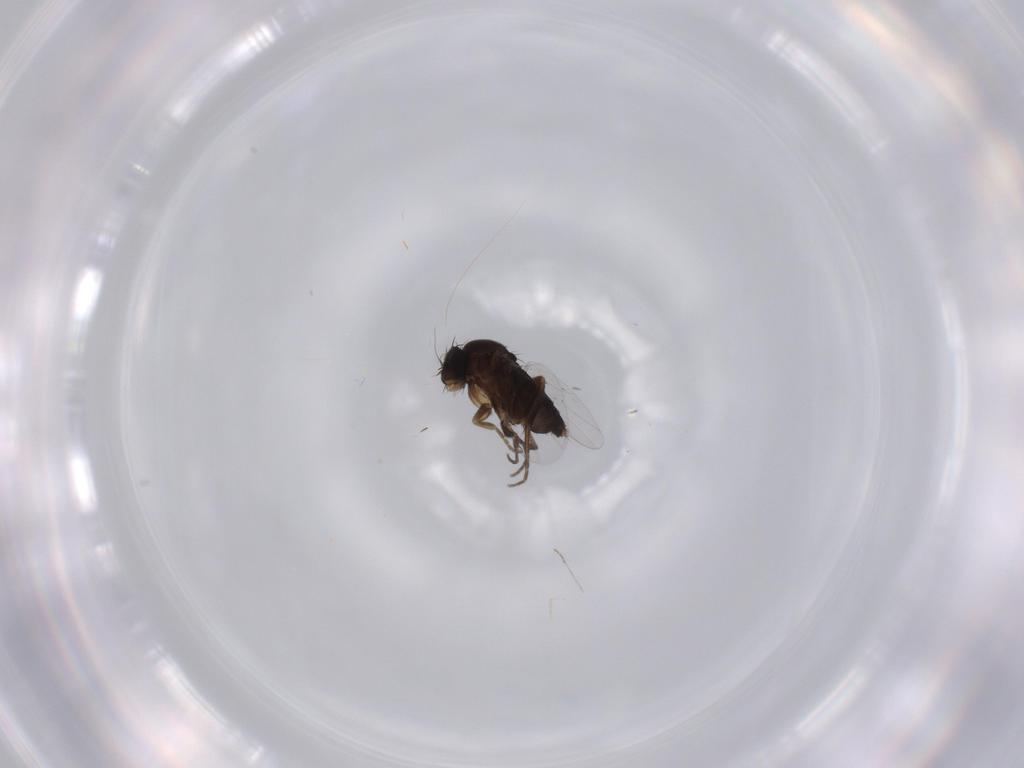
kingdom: Animalia
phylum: Arthropoda
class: Insecta
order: Diptera
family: Phoridae
